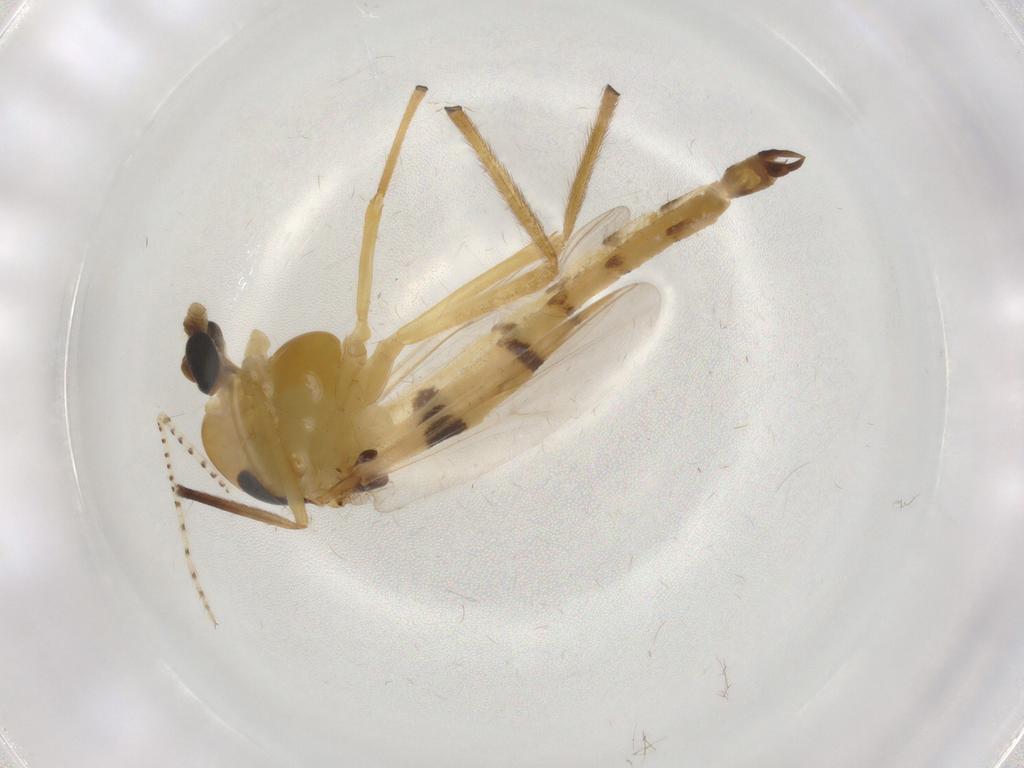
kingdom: Animalia
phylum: Arthropoda
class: Insecta
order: Diptera
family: Chironomidae
